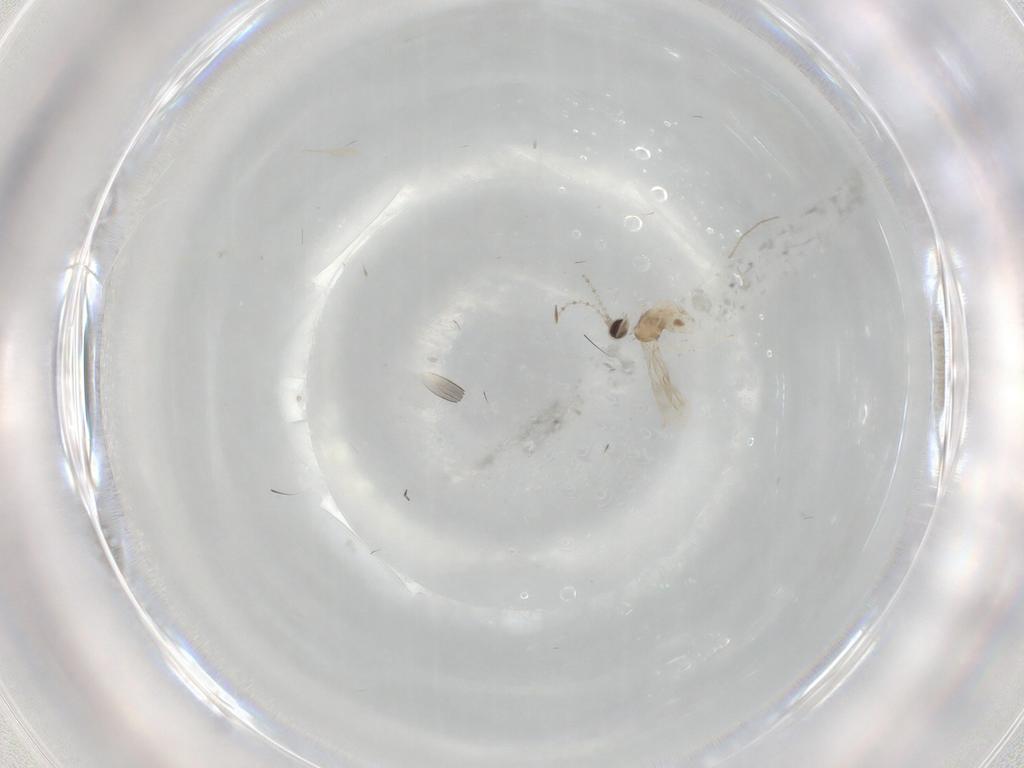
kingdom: Animalia
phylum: Arthropoda
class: Insecta
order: Diptera
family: Cecidomyiidae
